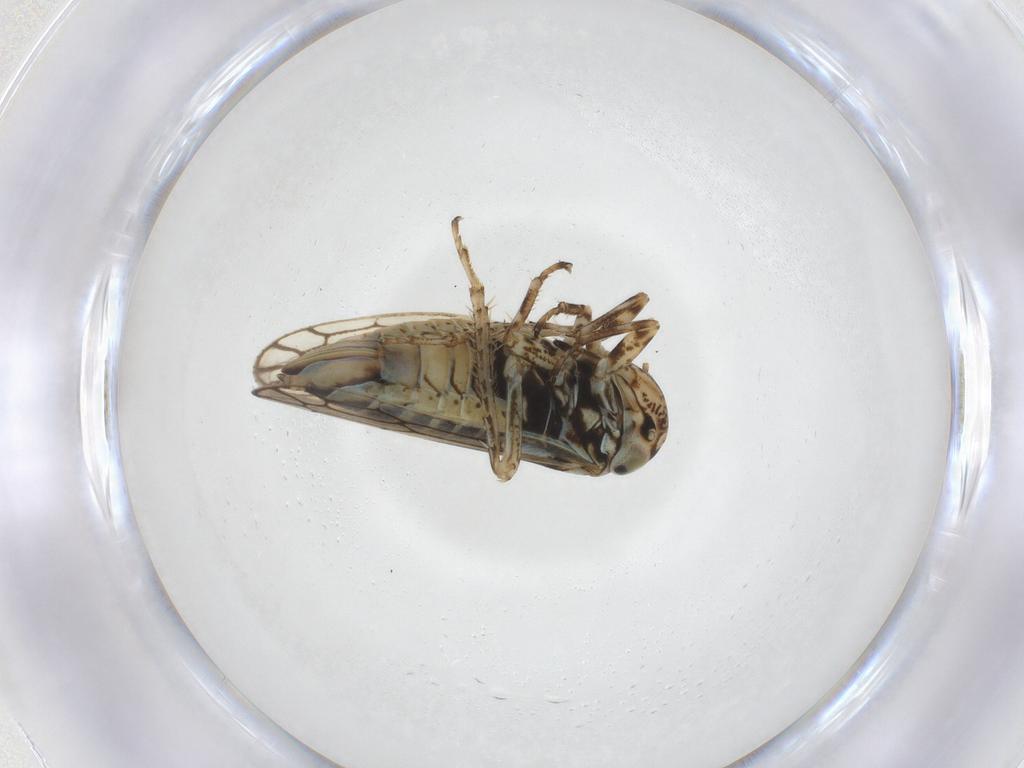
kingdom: Animalia
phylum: Arthropoda
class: Insecta
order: Hemiptera
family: Cicadellidae
